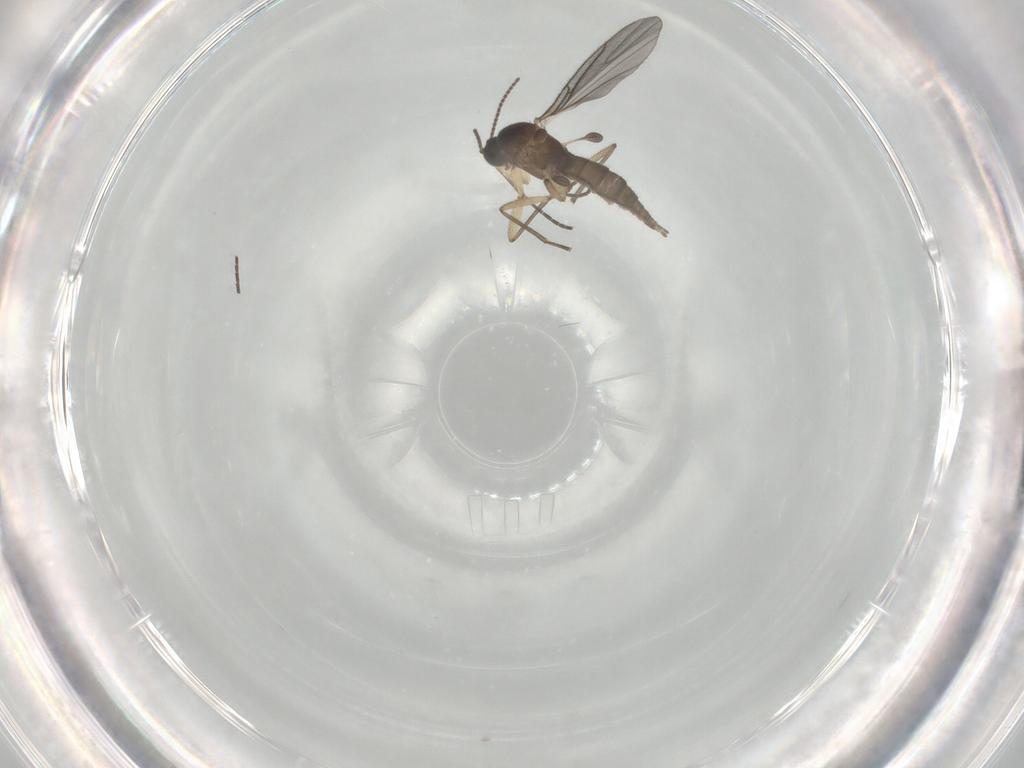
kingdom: Animalia
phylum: Arthropoda
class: Insecta
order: Diptera
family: Sciaridae
